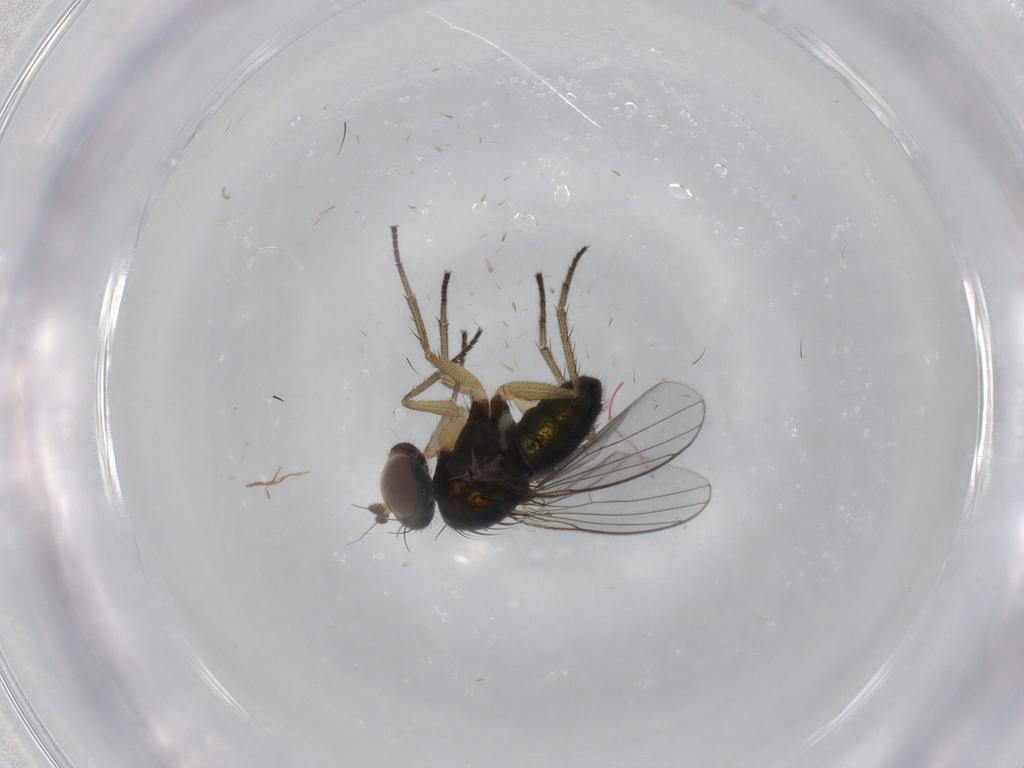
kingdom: Animalia
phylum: Arthropoda
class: Insecta
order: Diptera
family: Dolichopodidae
